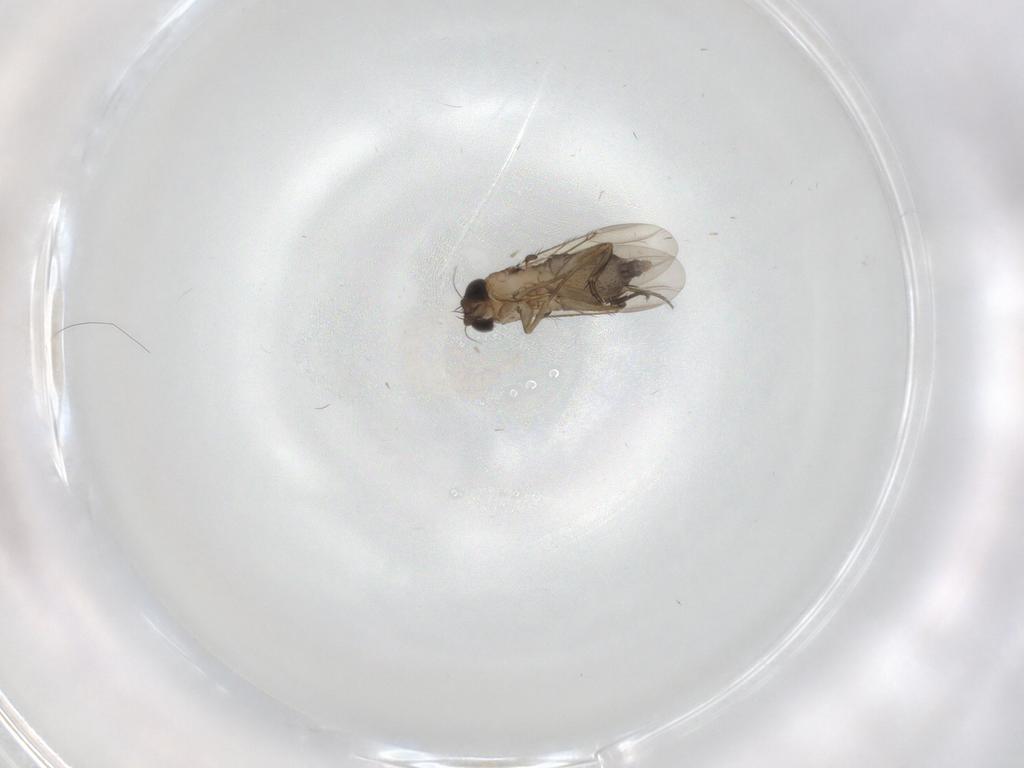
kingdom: Animalia
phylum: Arthropoda
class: Insecta
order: Diptera
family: Phoridae
